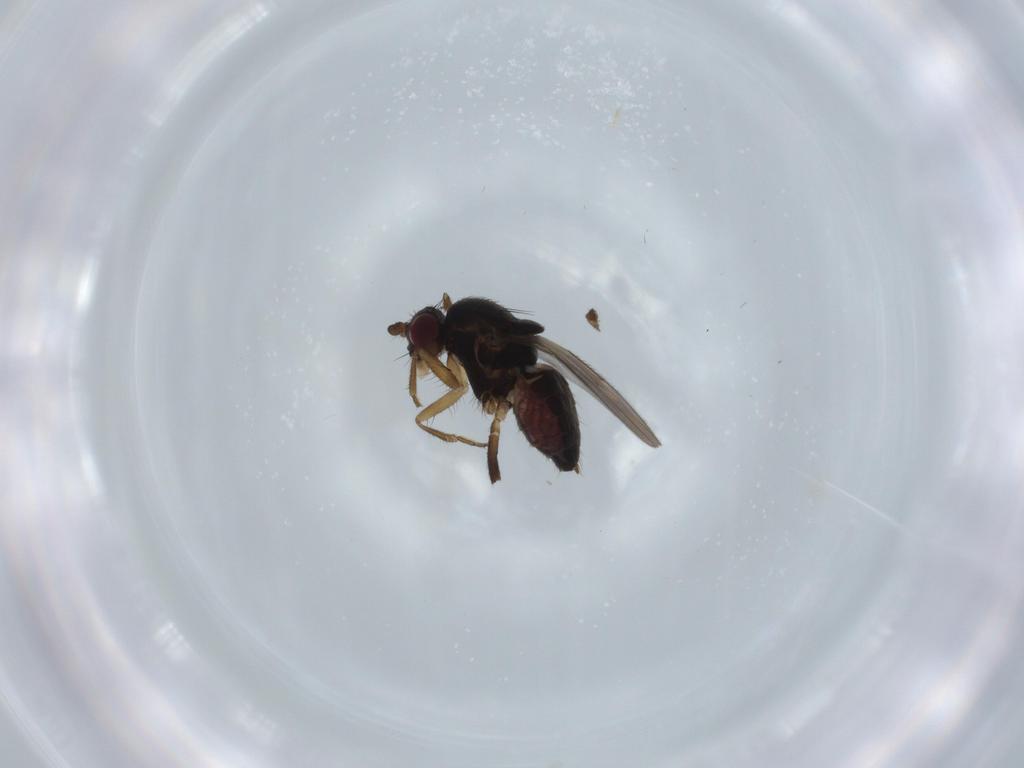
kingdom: Animalia
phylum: Arthropoda
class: Insecta
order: Diptera
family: Sphaeroceridae
